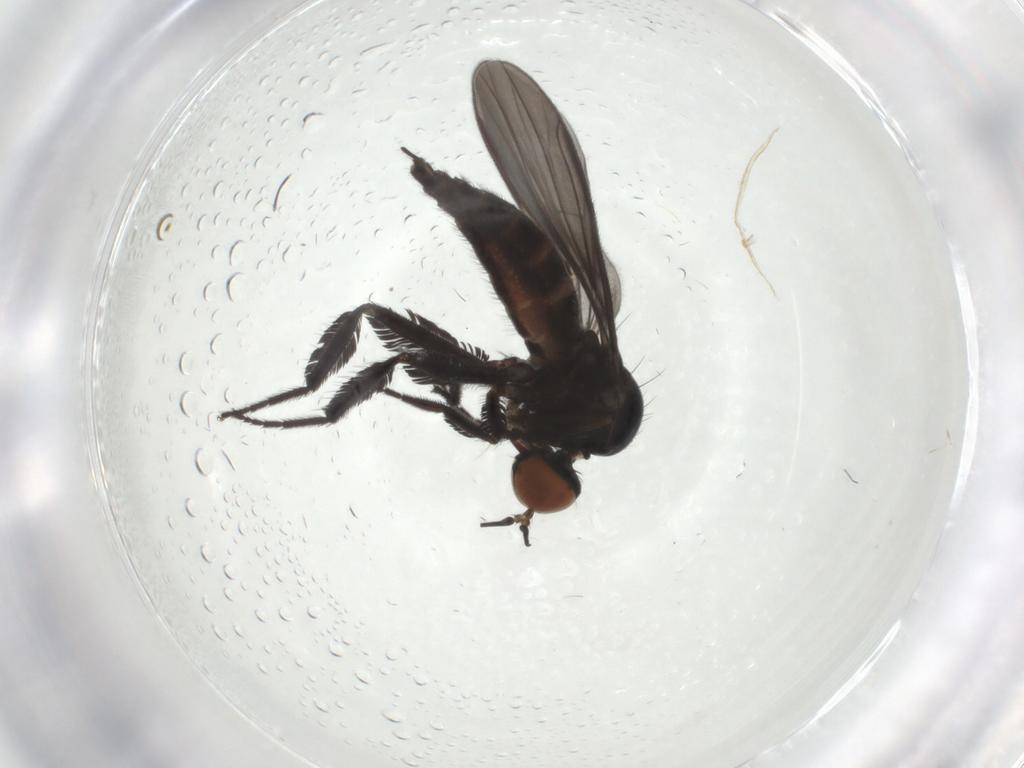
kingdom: Animalia
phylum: Arthropoda
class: Insecta
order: Diptera
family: Empididae
